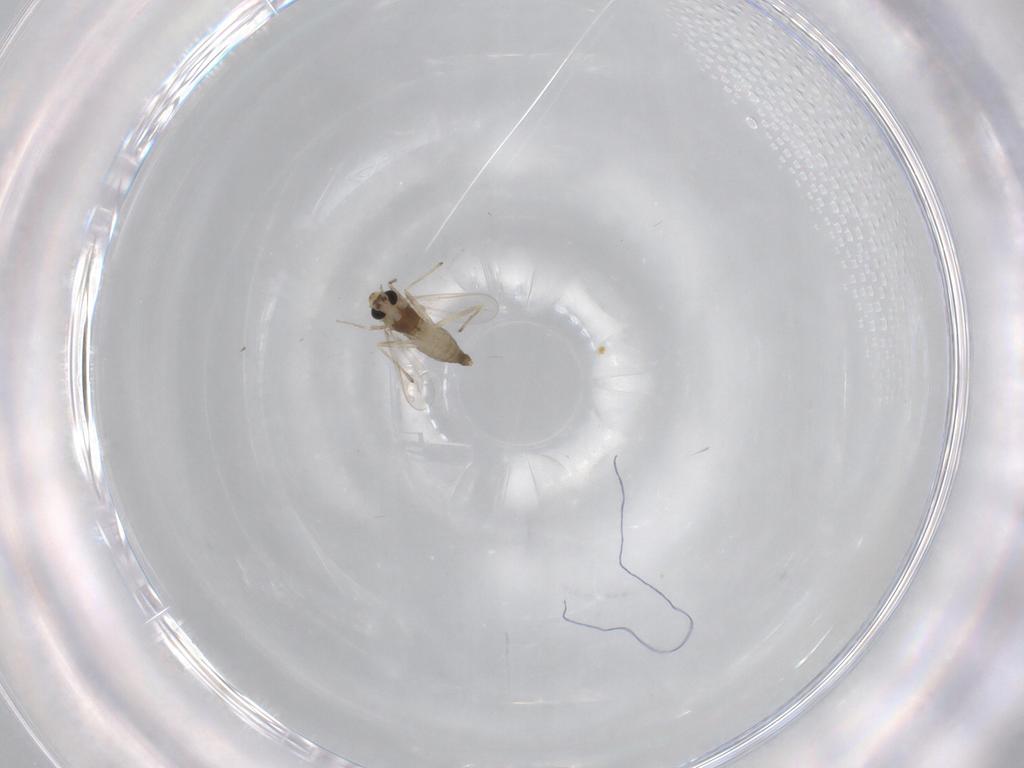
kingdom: Animalia
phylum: Arthropoda
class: Insecta
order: Diptera
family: Chironomidae
